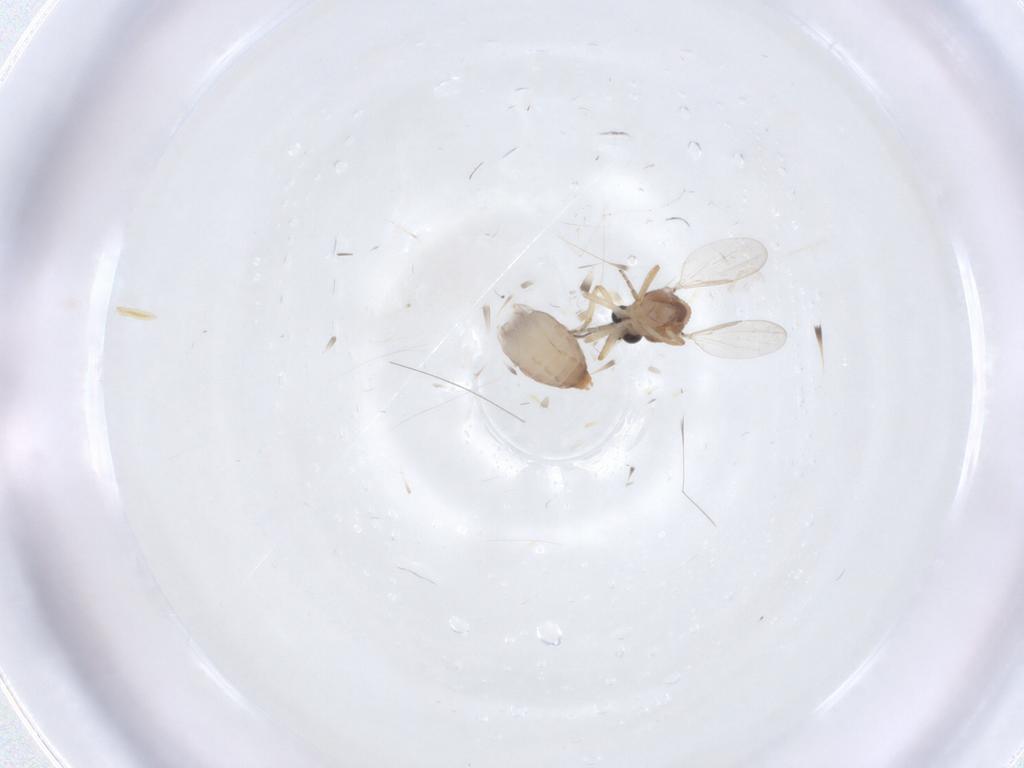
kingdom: Animalia
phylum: Arthropoda
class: Insecta
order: Diptera
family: Ceratopogonidae
